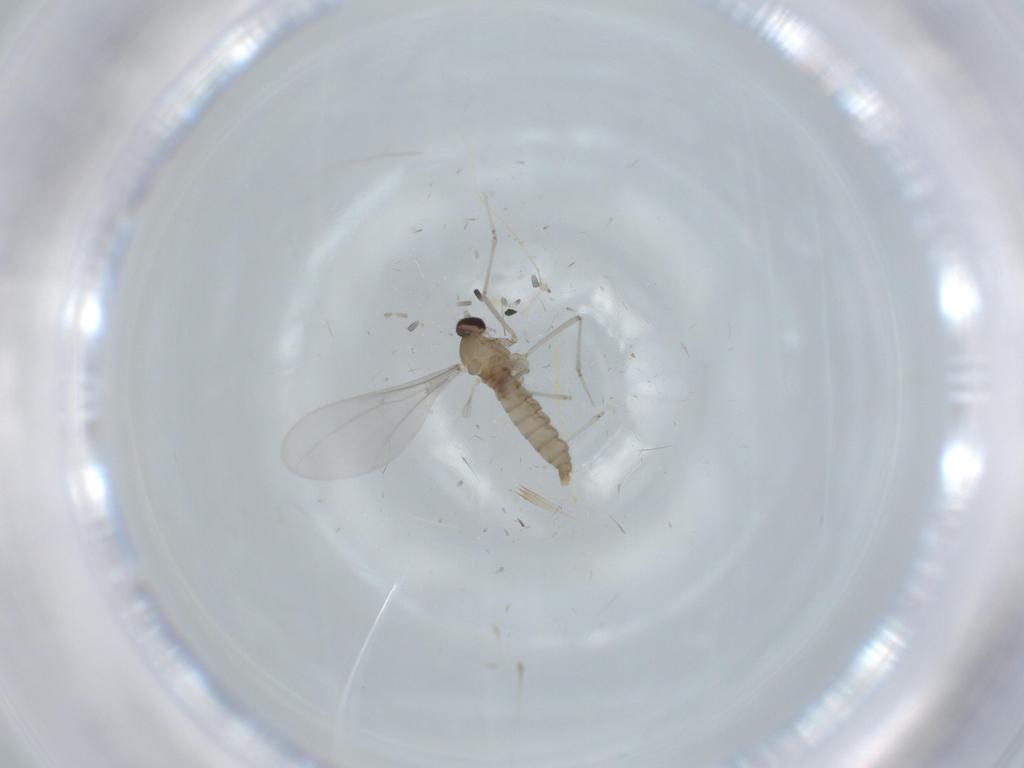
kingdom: Animalia
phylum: Arthropoda
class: Insecta
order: Diptera
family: Cecidomyiidae
